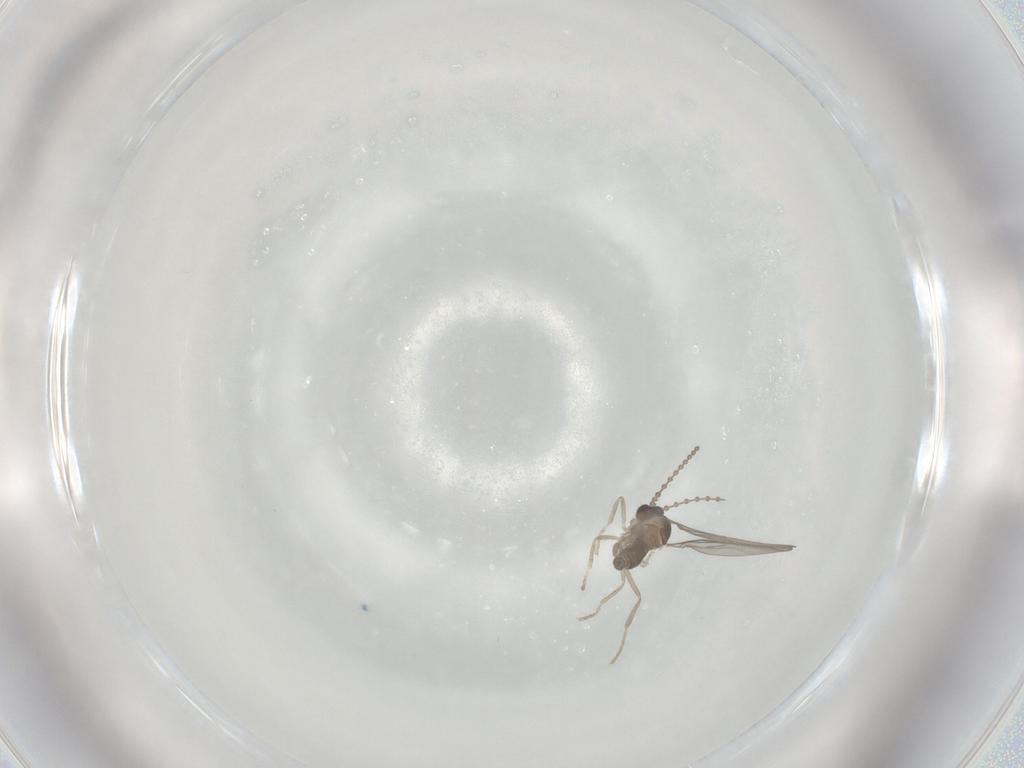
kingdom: Animalia
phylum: Arthropoda
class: Insecta
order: Diptera
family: Cecidomyiidae
